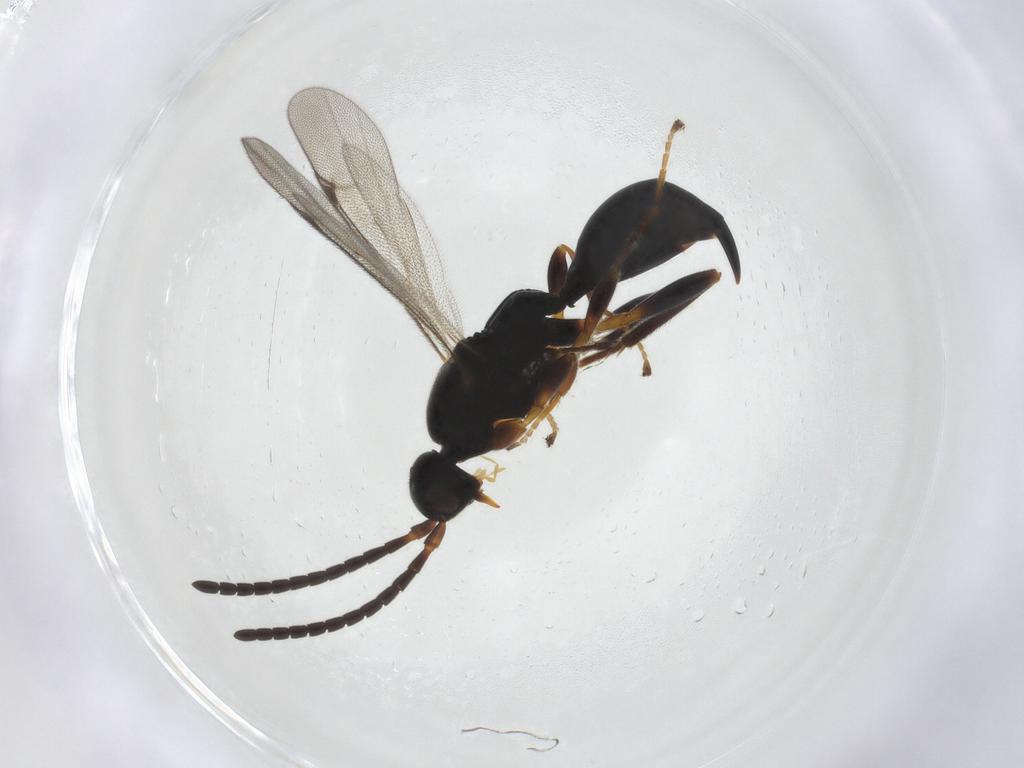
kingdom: Animalia
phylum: Arthropoda
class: Insecta
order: Hymenoptera
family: Proctotrupidae
